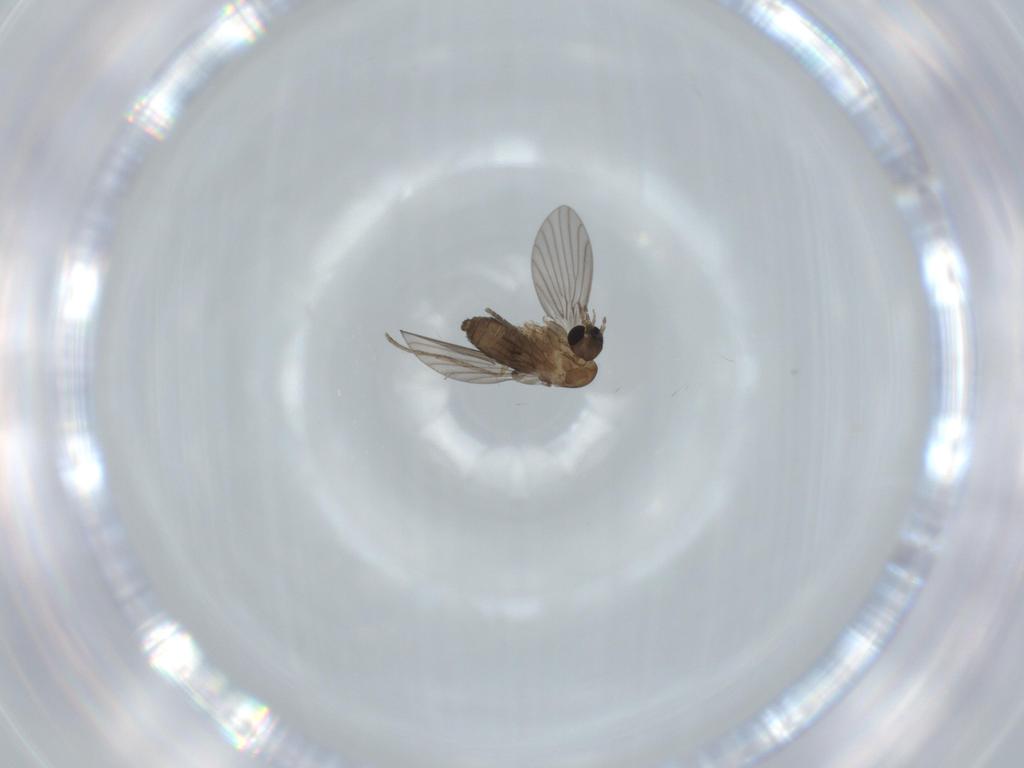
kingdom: Animalia
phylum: Arthropoda
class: Insecta
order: Diptera
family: Psychodidae
